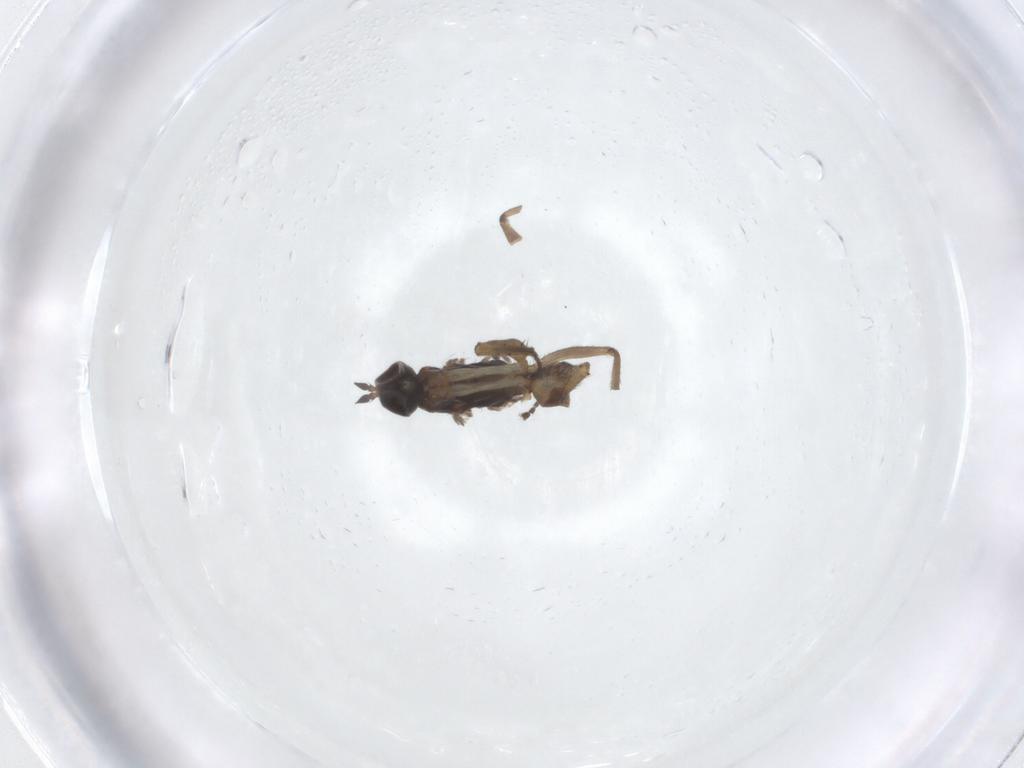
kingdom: Animalia
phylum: Arthropoda
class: Insecta
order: Diptera
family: Empididae
